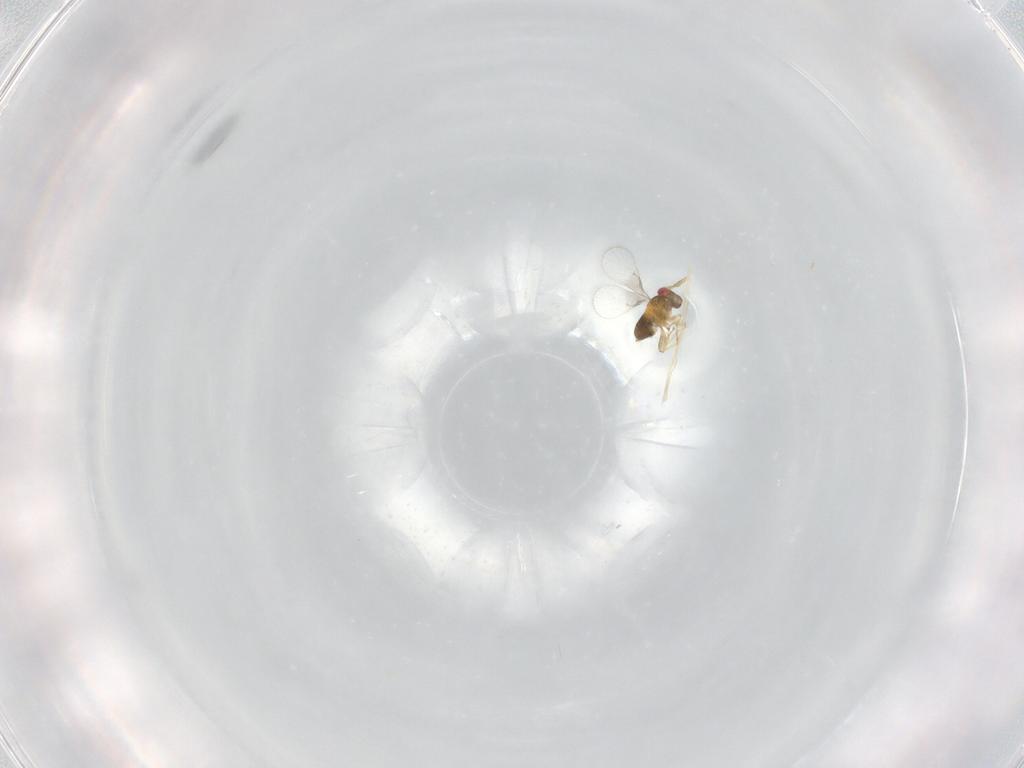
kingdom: Animalia
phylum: Arthropoda
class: Insecta
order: Hymenoptera
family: Trichogrammatidae
